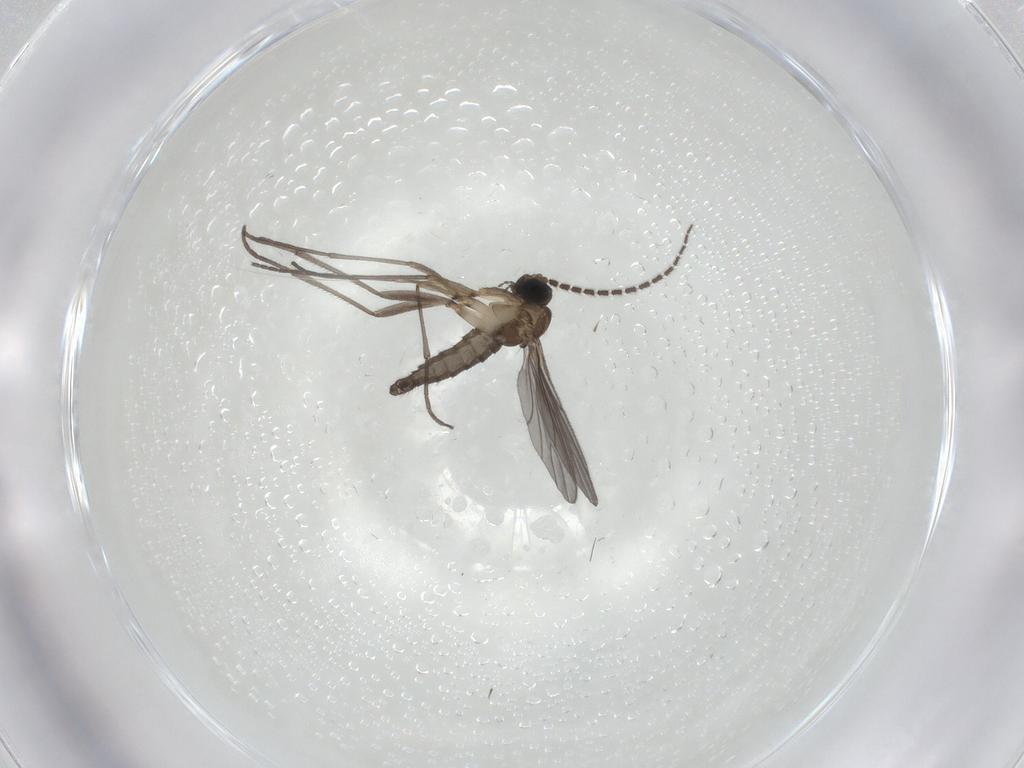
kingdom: Animalia
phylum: Arthropoda
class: Insecta
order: Diptera
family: Sciaridae
